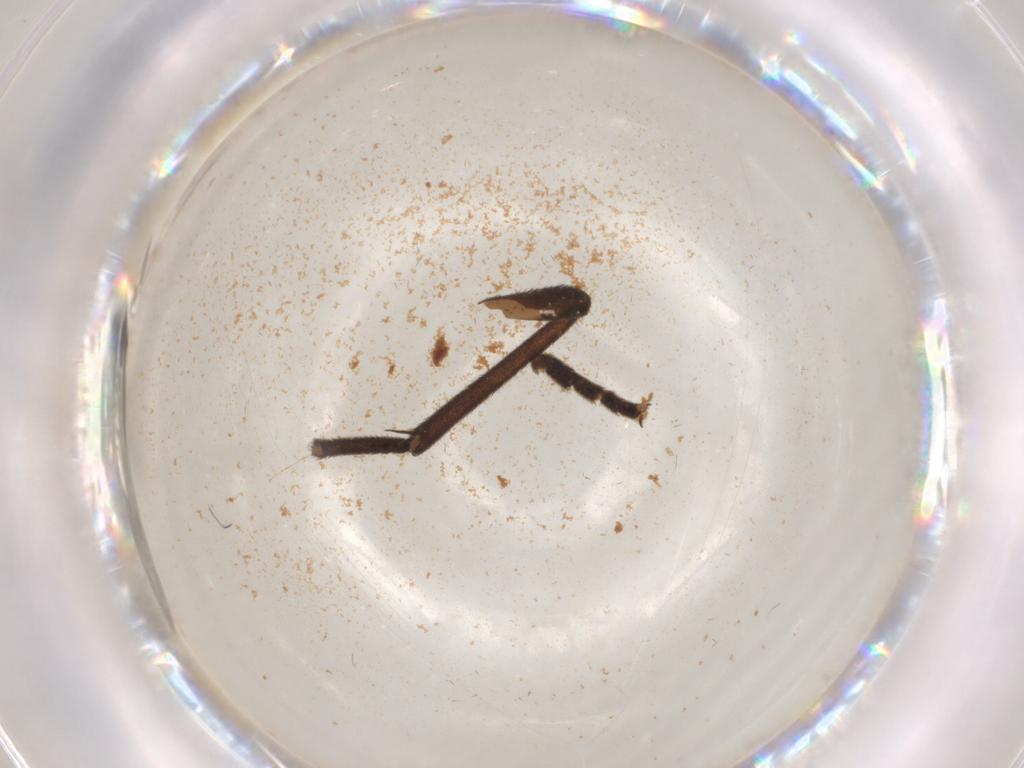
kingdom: Animalia
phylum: Arthropoda
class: Insecta
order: Diptera
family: Sciaridae
